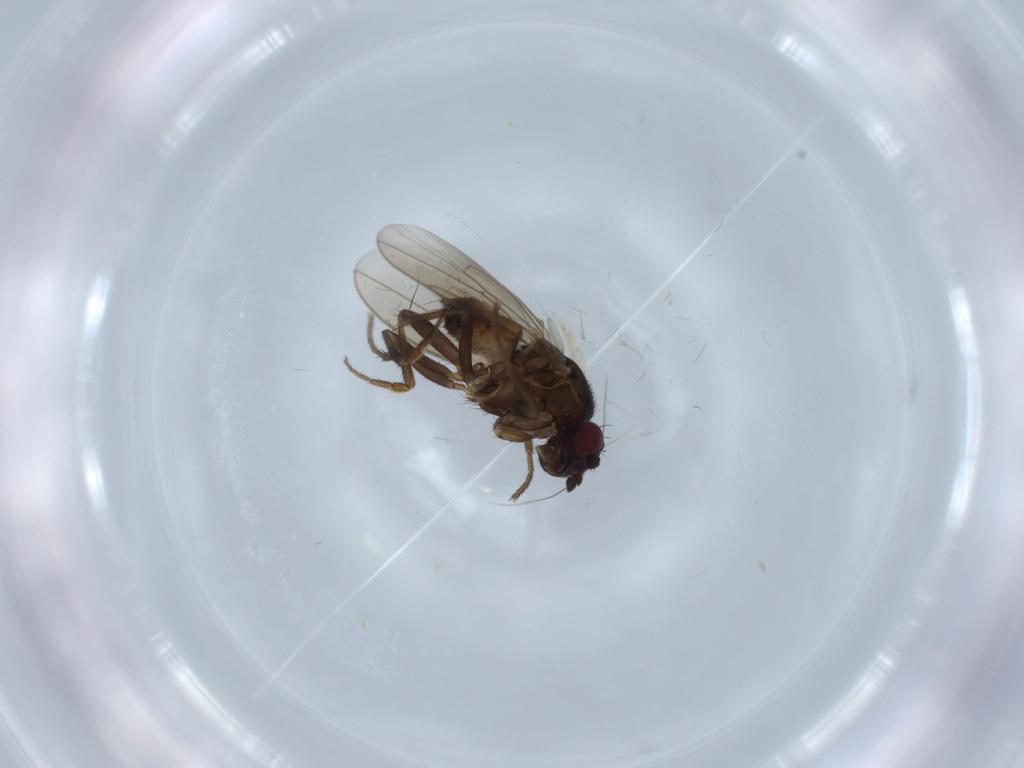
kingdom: Animalia
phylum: Arthropoda
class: Insecta
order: Diptera
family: Sphaeroceridae
